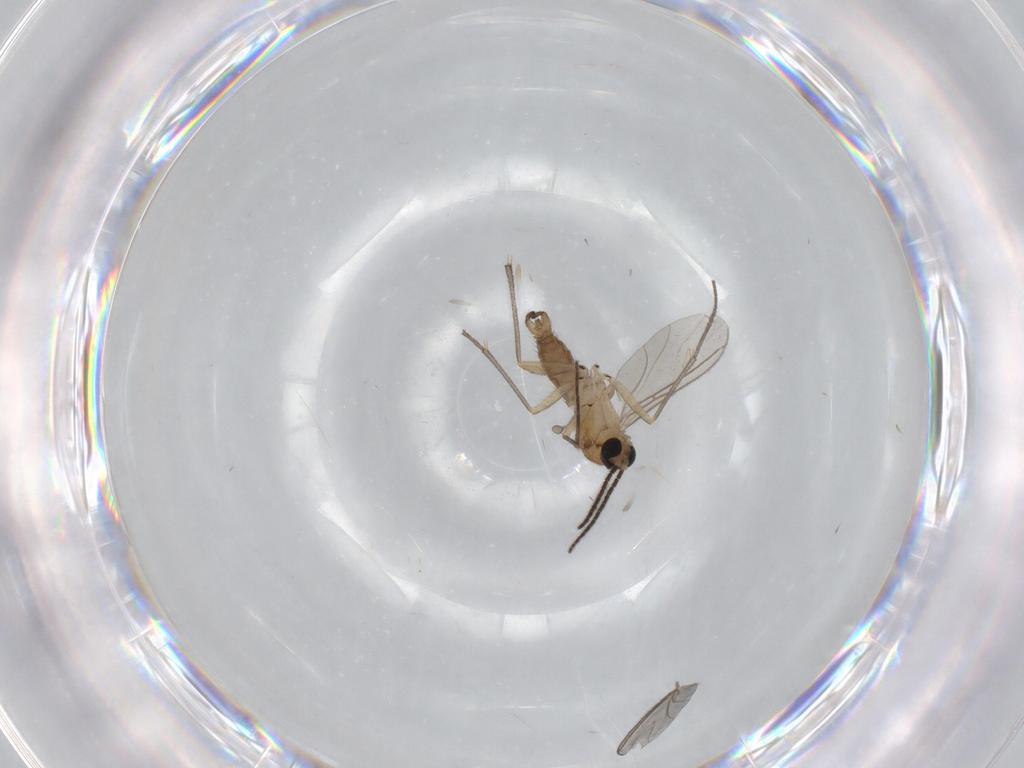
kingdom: Animalia
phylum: Arthropoda
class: Insecta
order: Diptera
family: Sciaridae
